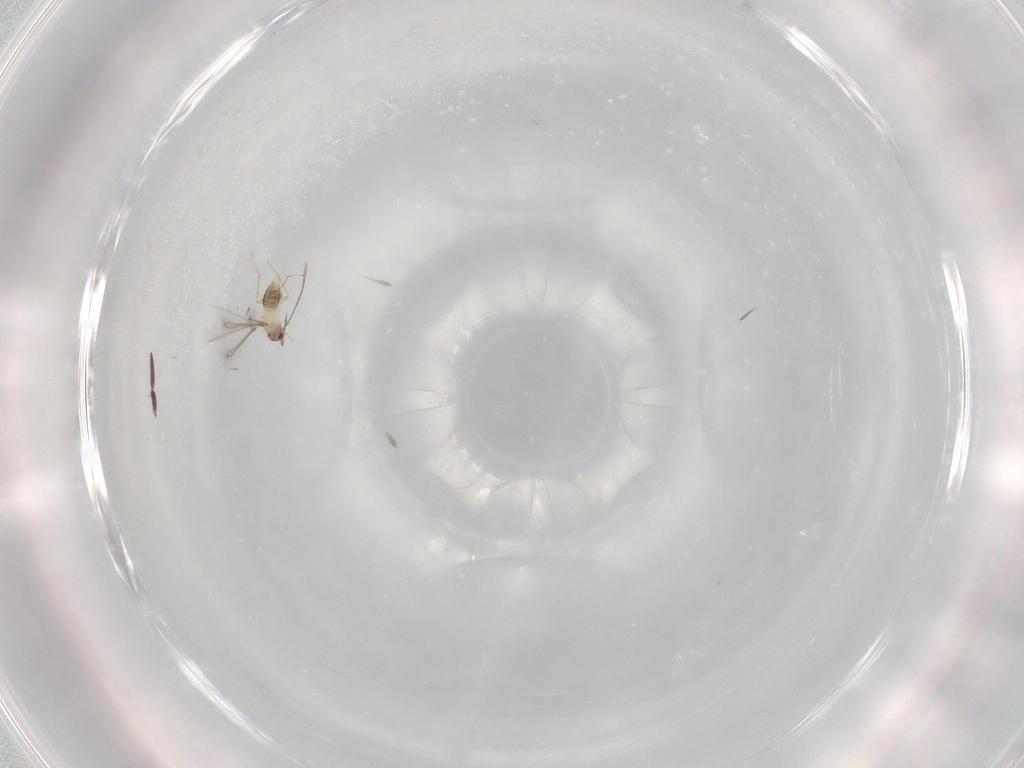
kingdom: Animalia
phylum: Arthropoda
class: Insecta
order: Hymenoptera
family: Mymaridae
